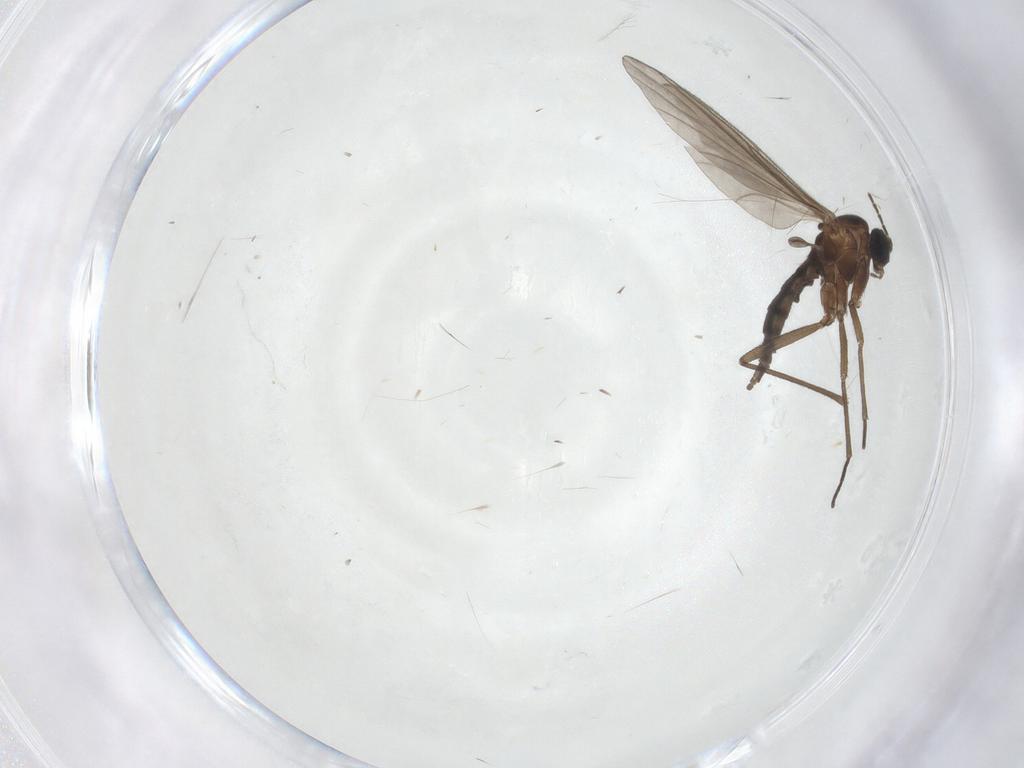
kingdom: Animalia
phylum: Arthropoda
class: Insecta
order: Diptera
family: Sciaridae
